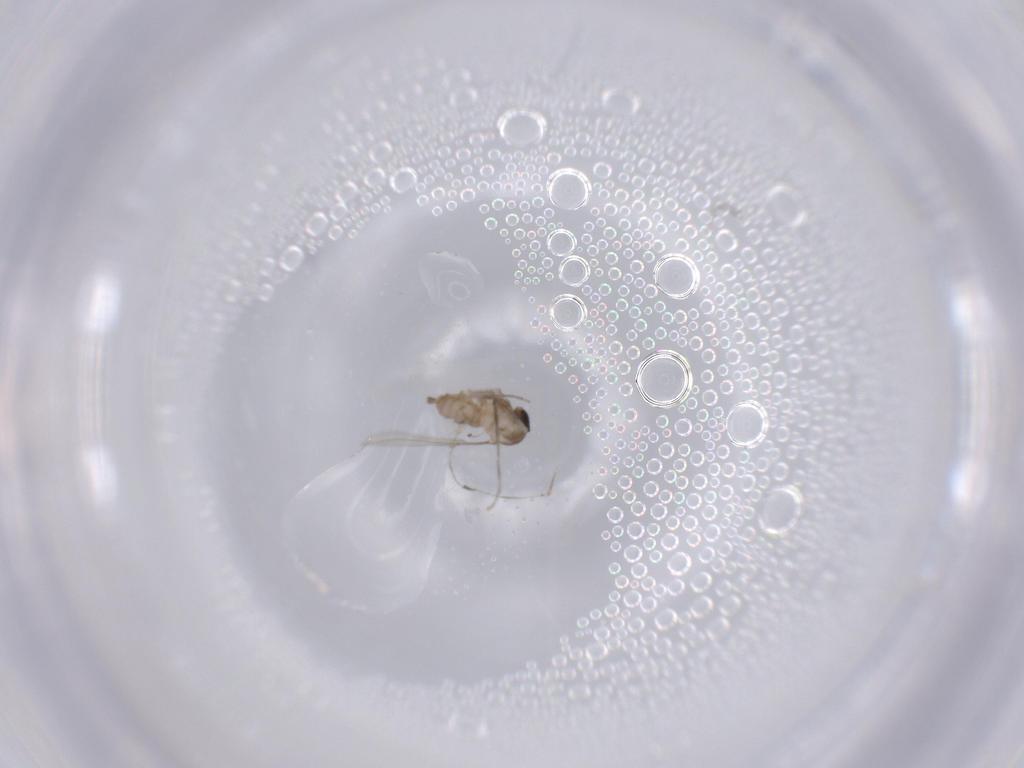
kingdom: Animalia
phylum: Arthropoda
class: Insecta
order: Diptera
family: Cecidomyiidae
